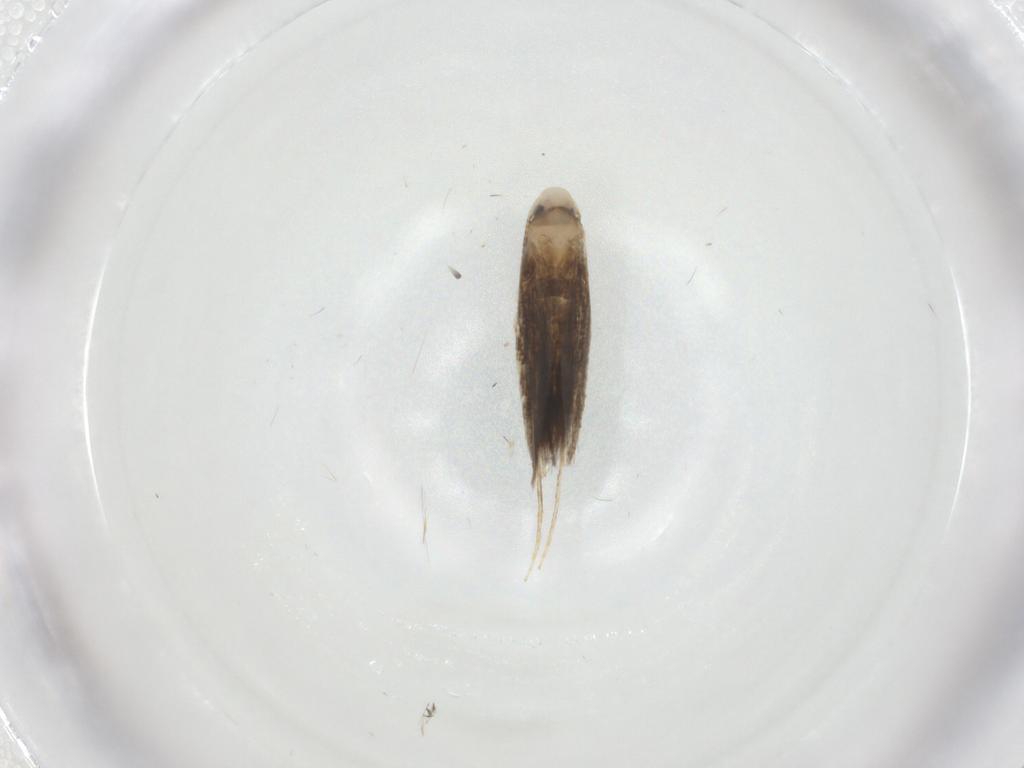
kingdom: Animalia
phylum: Arthropoda
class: Insecta
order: Lepidoptera
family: Gracillariidae
